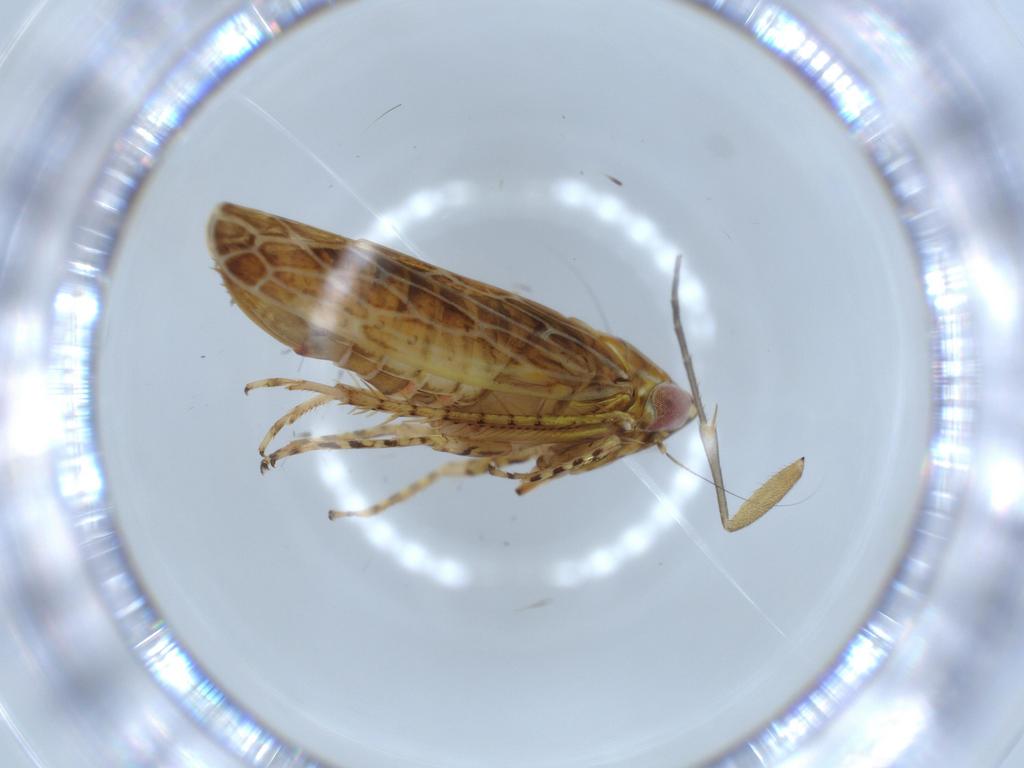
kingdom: Animalia
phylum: Arthropoda
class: Insecta
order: Hemiptera
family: Cicadellidae
